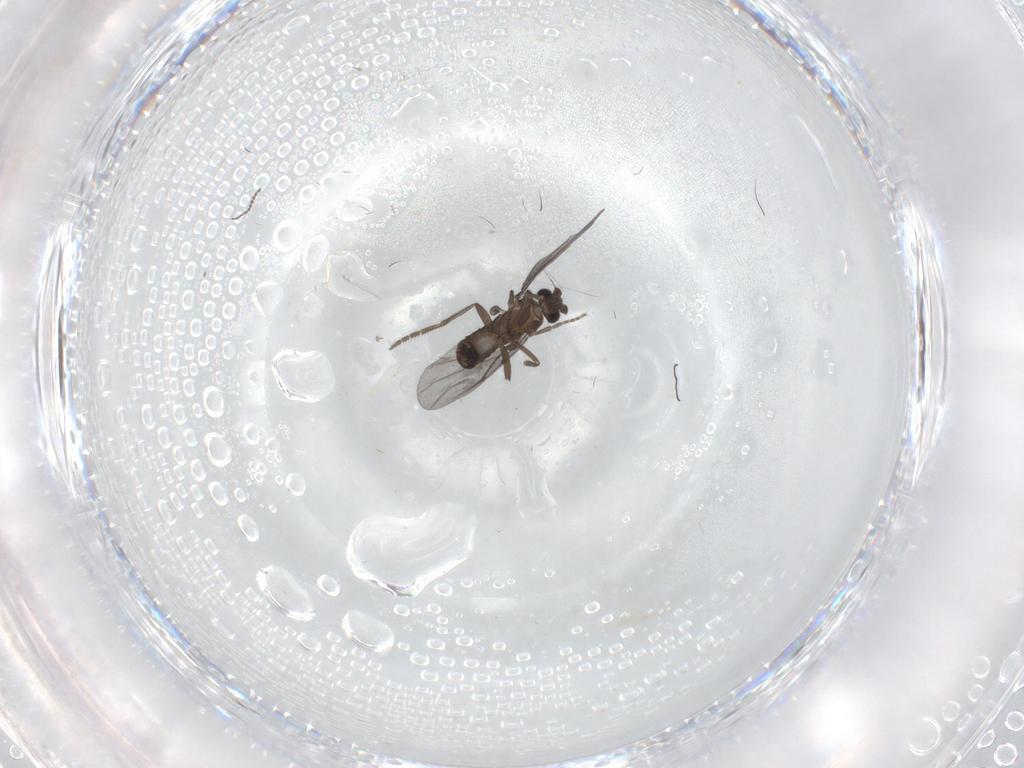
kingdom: Animalia
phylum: Arthropoda
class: Insecta
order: Diptera
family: Phoridae
